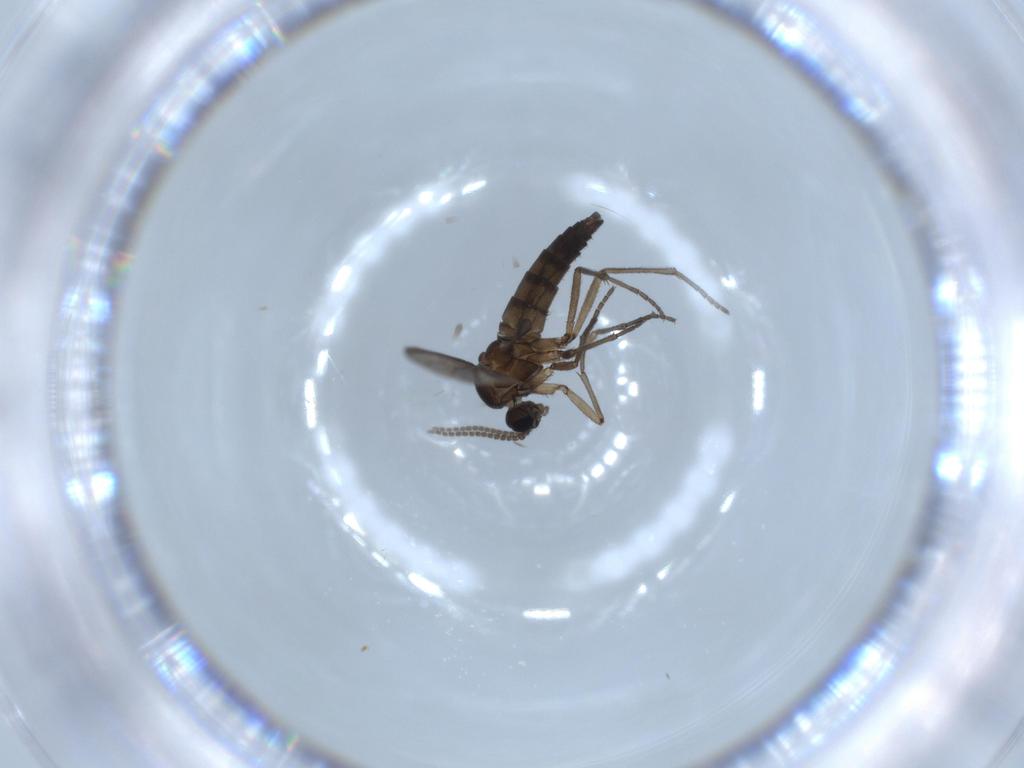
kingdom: Animalia
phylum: Arthropoda
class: Insecta
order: Diptera
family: Sciaridae
